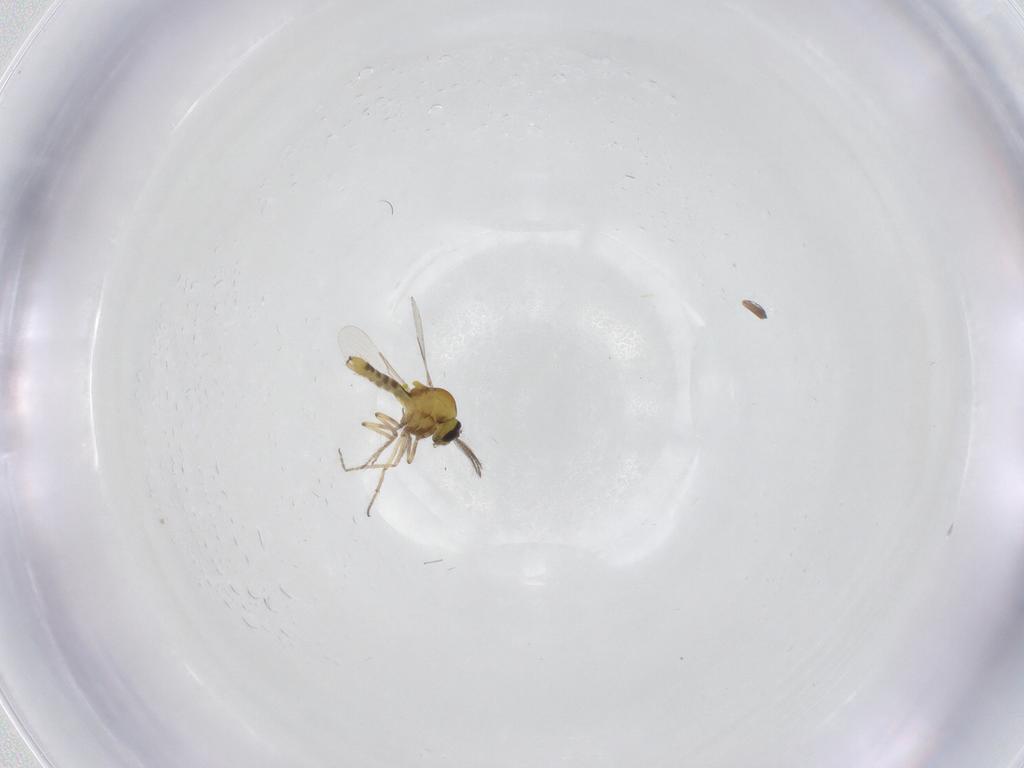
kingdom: Animalia
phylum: Arthropoda
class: Insecta
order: Diptera
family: Ceratopogonidae
